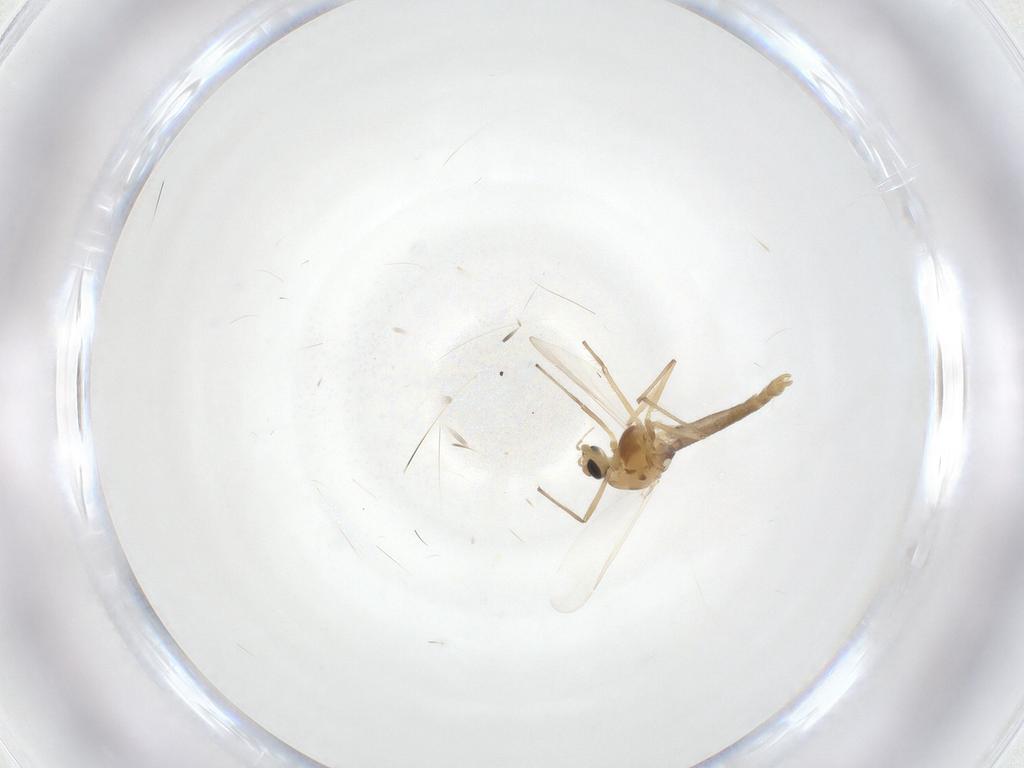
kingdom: Animalia
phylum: Arthropoda
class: Insecta
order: Diptera
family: Chironomidae
